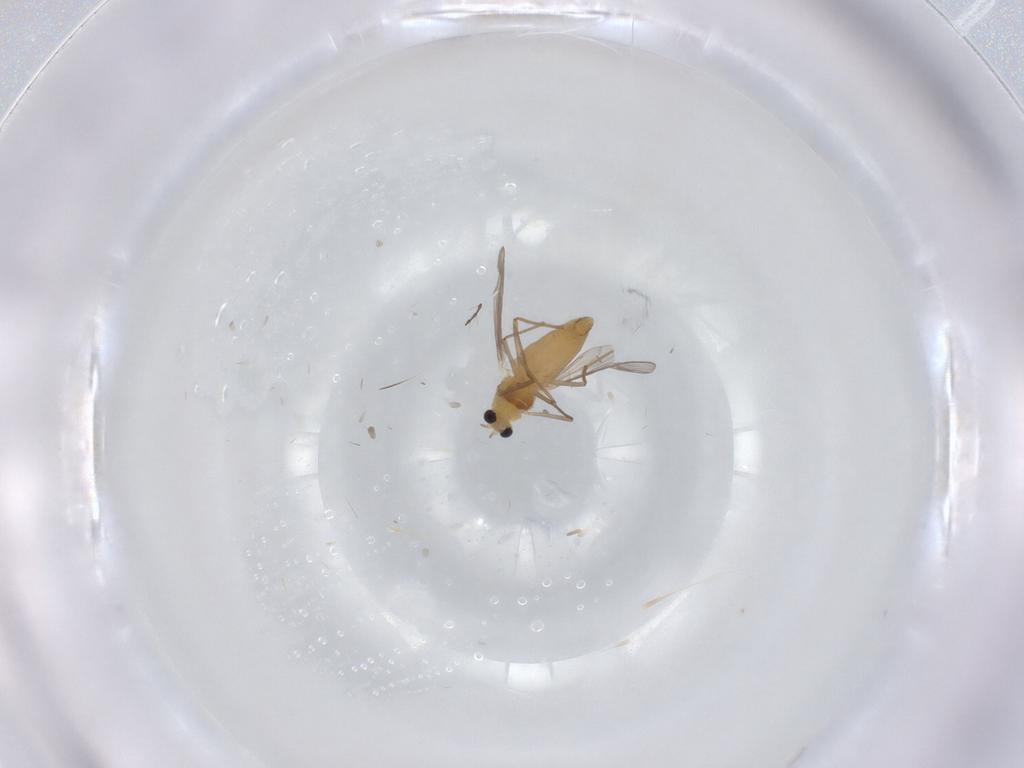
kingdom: Animalia
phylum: Arthropoda
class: Insecta
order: Diptera
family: Chironomidae
